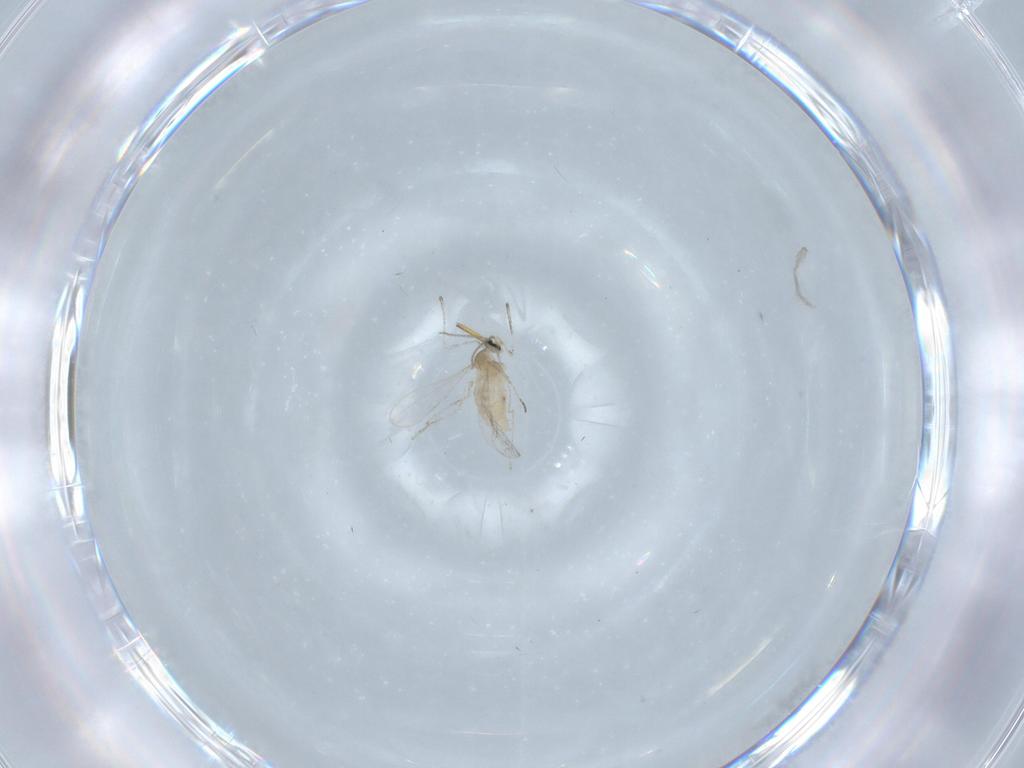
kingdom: Animalia
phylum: Arthropoda
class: Insecta
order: Diptera
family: Cecidomyiidae
